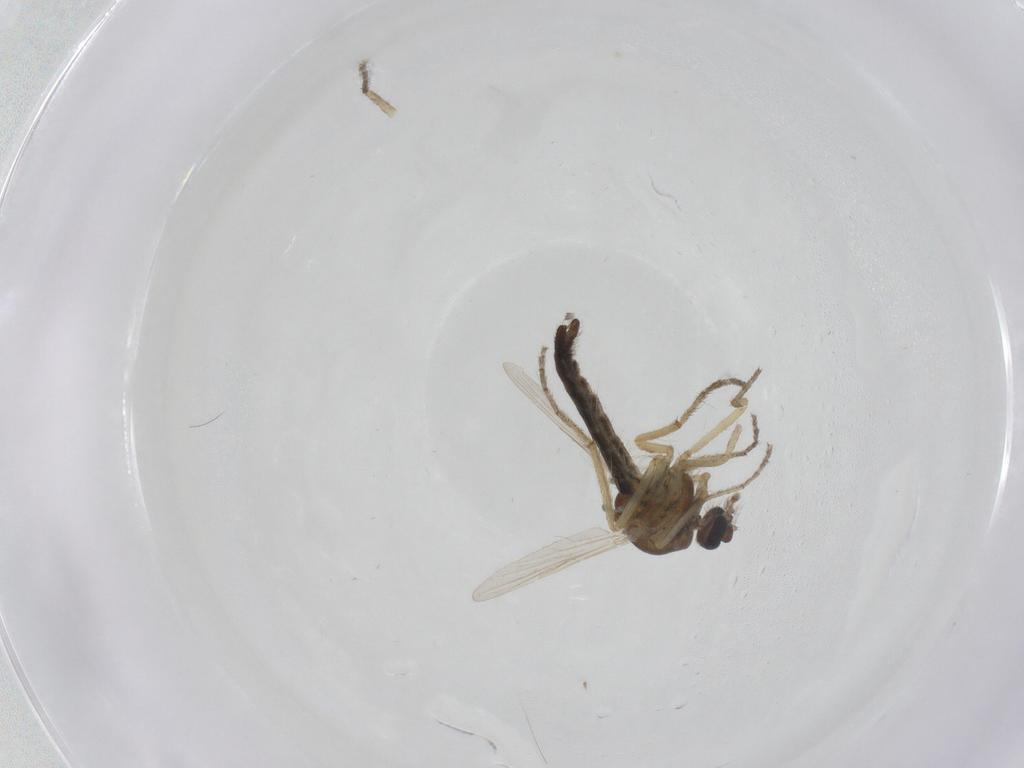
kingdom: Animalia
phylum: Arthropoda
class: Insecta
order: Diptera
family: Ceratopogonidae
